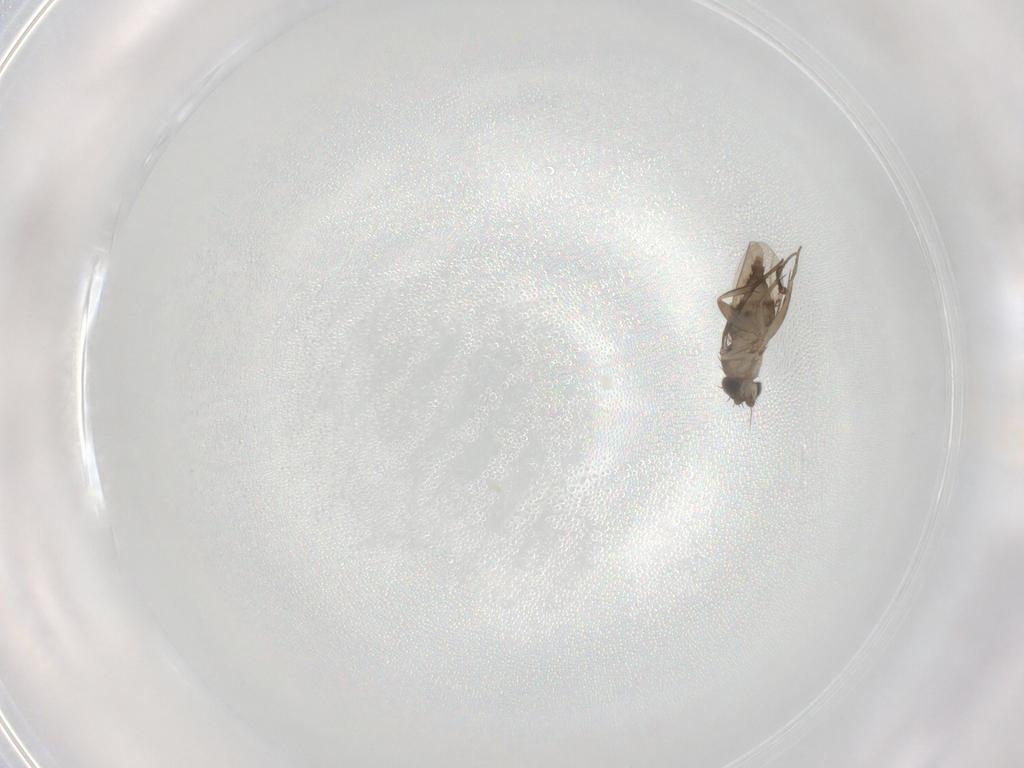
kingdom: Animalia
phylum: Arthropoda
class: Insecta
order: Diptera
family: Phoridae
